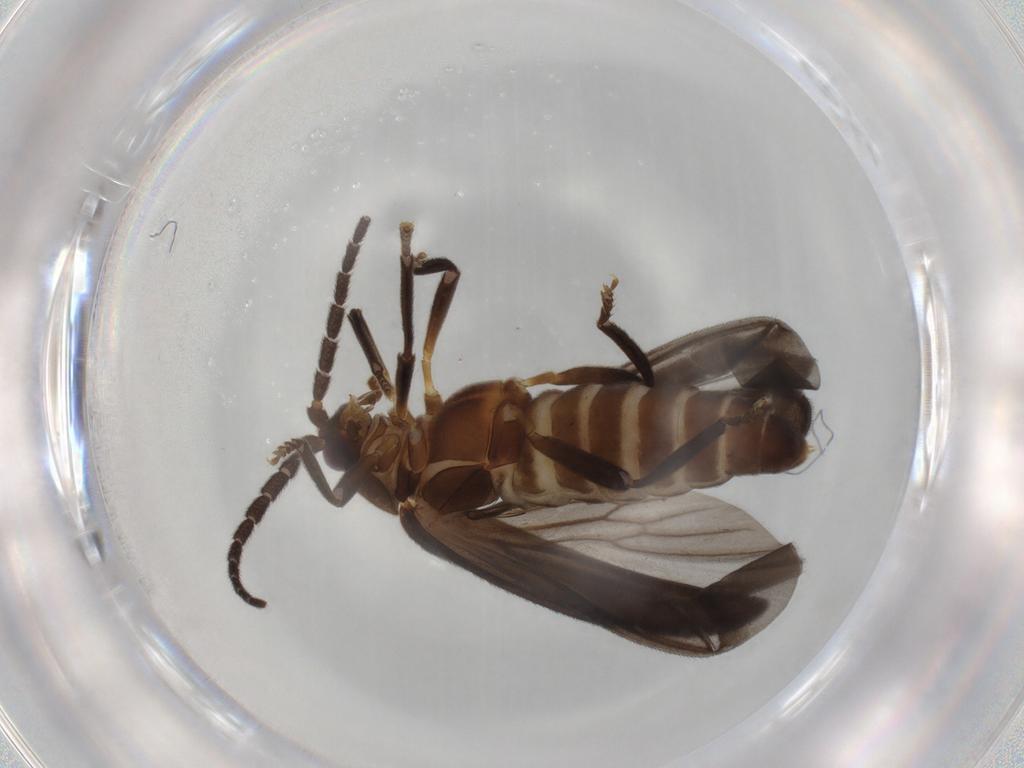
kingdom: Animalia
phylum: Arthropoda
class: Insecta
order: Coleoptera
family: Lycidae
